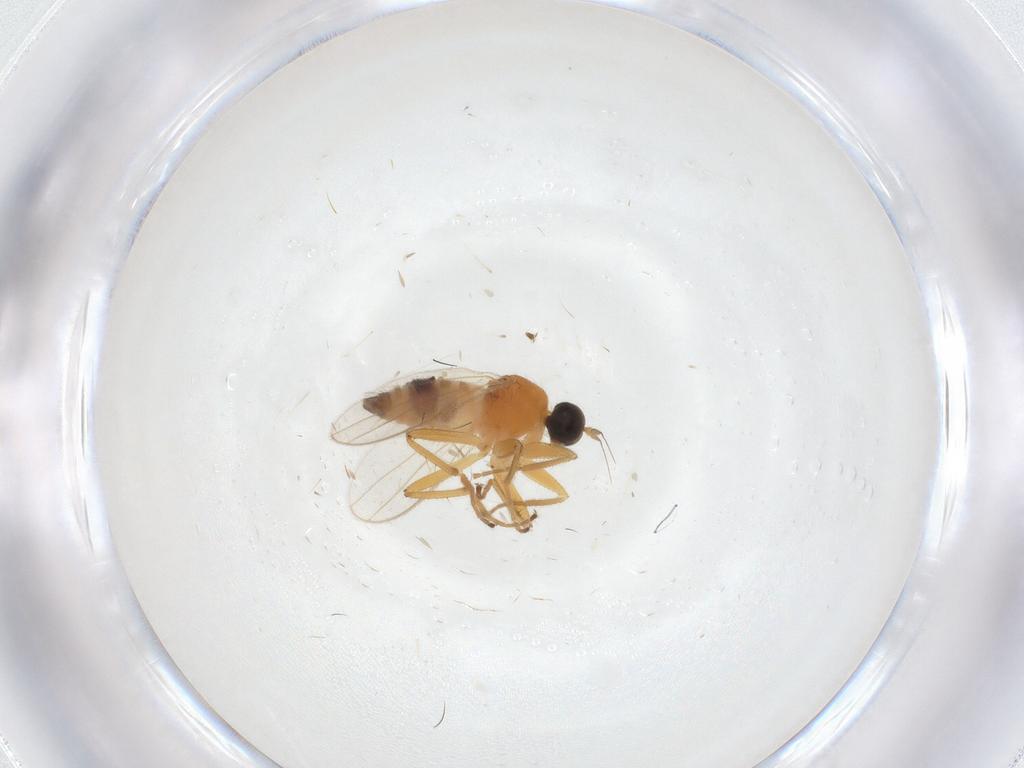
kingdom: Animalia
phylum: Arthropoda
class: Insecta
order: Diptera
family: Hybotidae
